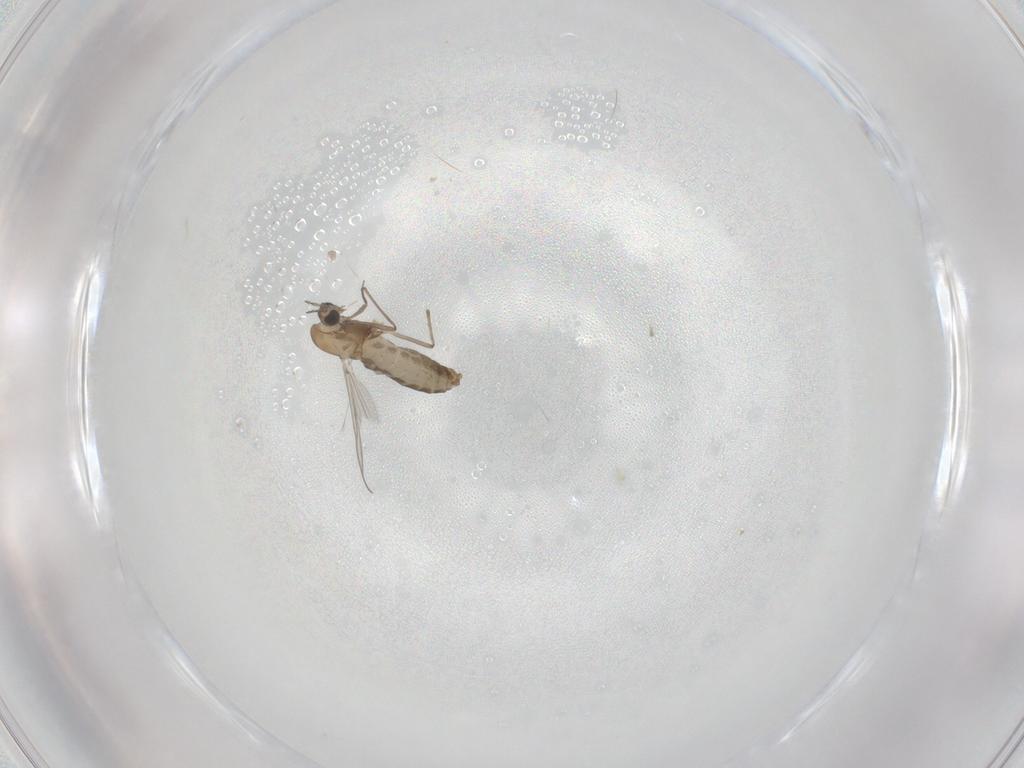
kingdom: Animalia
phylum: Arthropoda
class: Insecta
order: Diptera
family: Chironomidae
